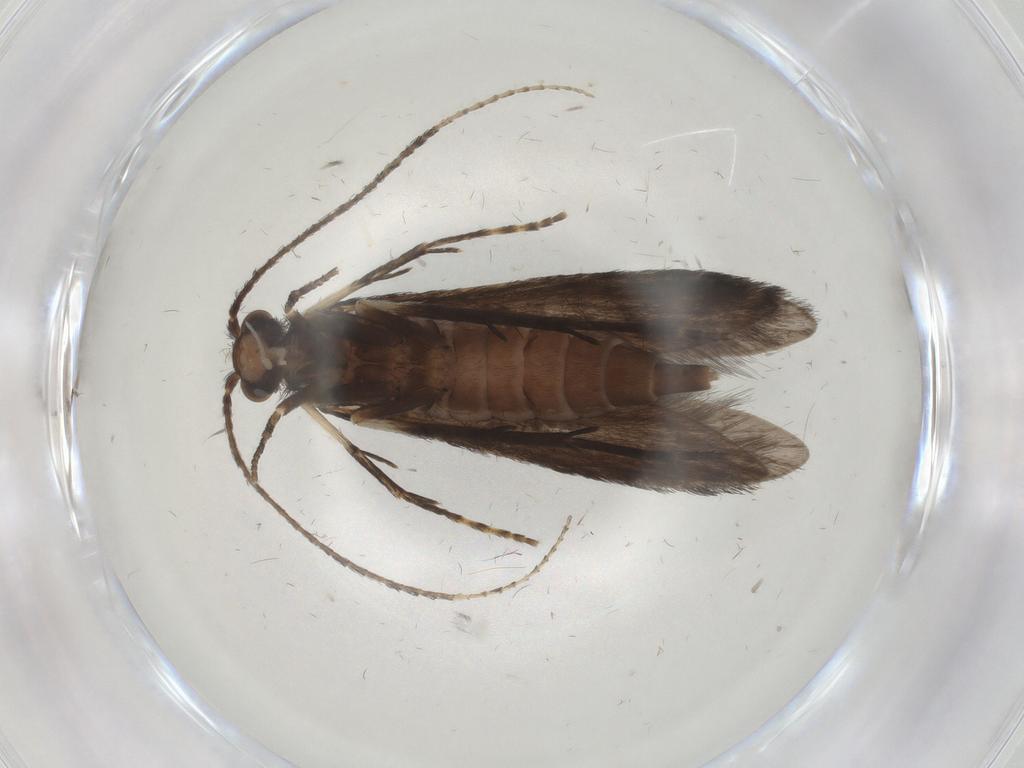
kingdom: Animalia
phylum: Arthropoda
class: Insecta
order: Trichoptera
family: Xiphocentronidae
